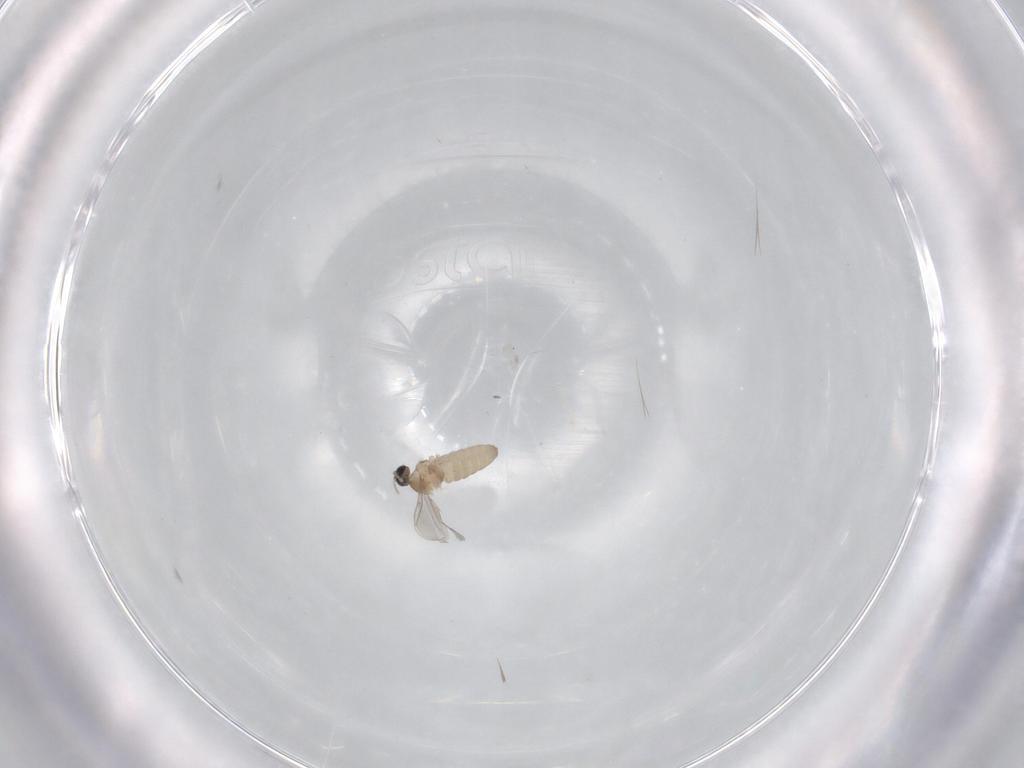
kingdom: Animalia
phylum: Arthropoda
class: Insecta
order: Diptera
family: Cecidomyiidae
